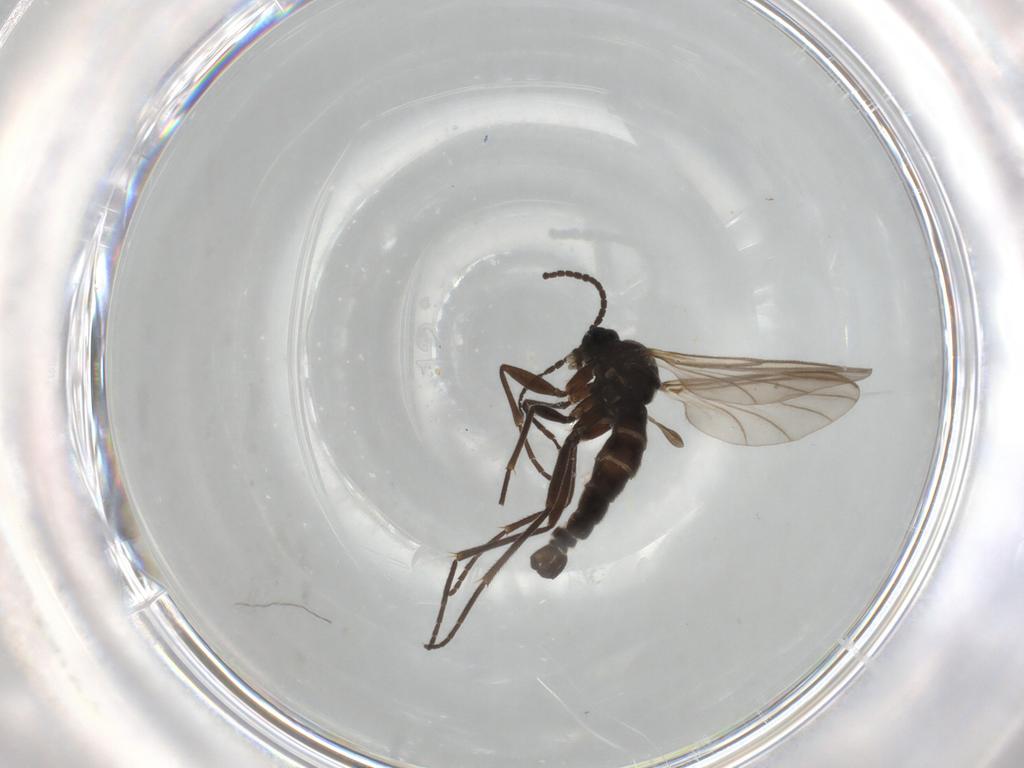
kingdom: Animalia
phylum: Arthropoda
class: Insecta
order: Diptera
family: Sciaridae
